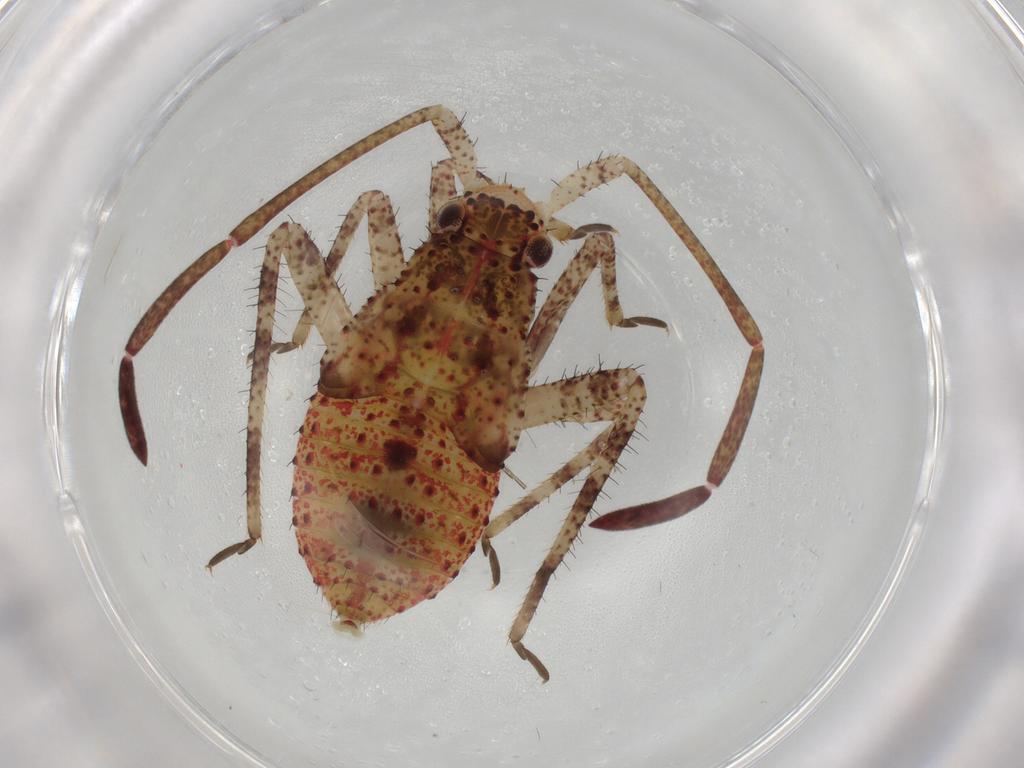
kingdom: Animalia
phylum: Arthropoda
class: Insecta
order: Hemiptera
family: Miridae
